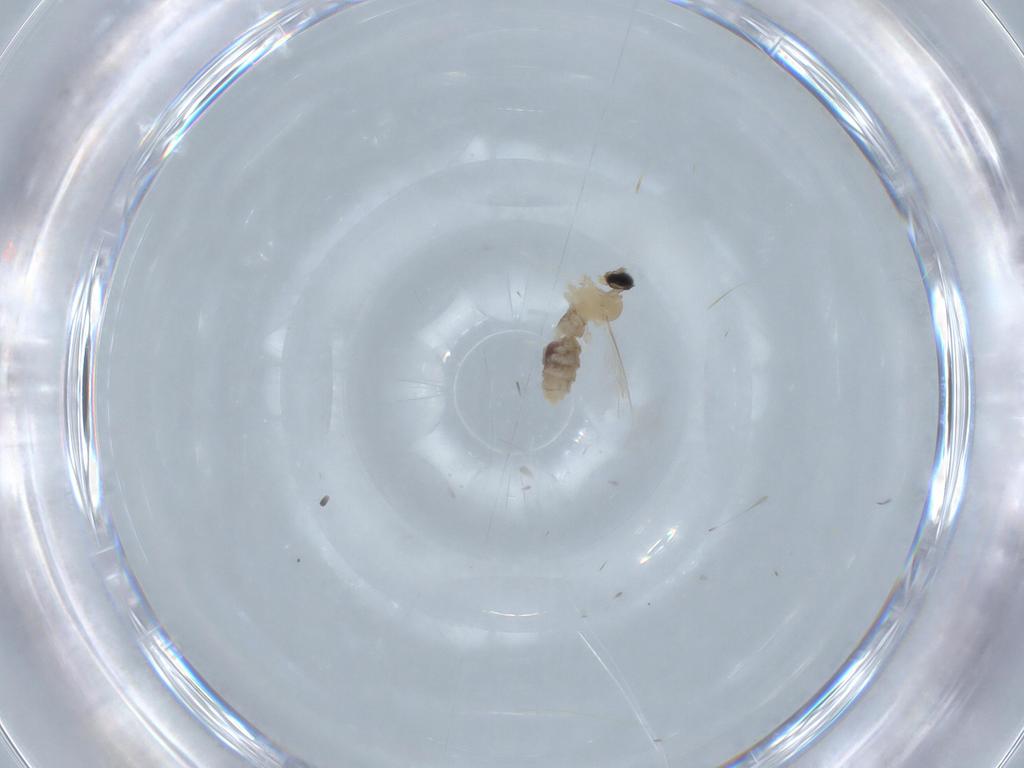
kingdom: Animalia
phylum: Arthropoda
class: Insecta
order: Diptera
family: Cecidomyiidae
